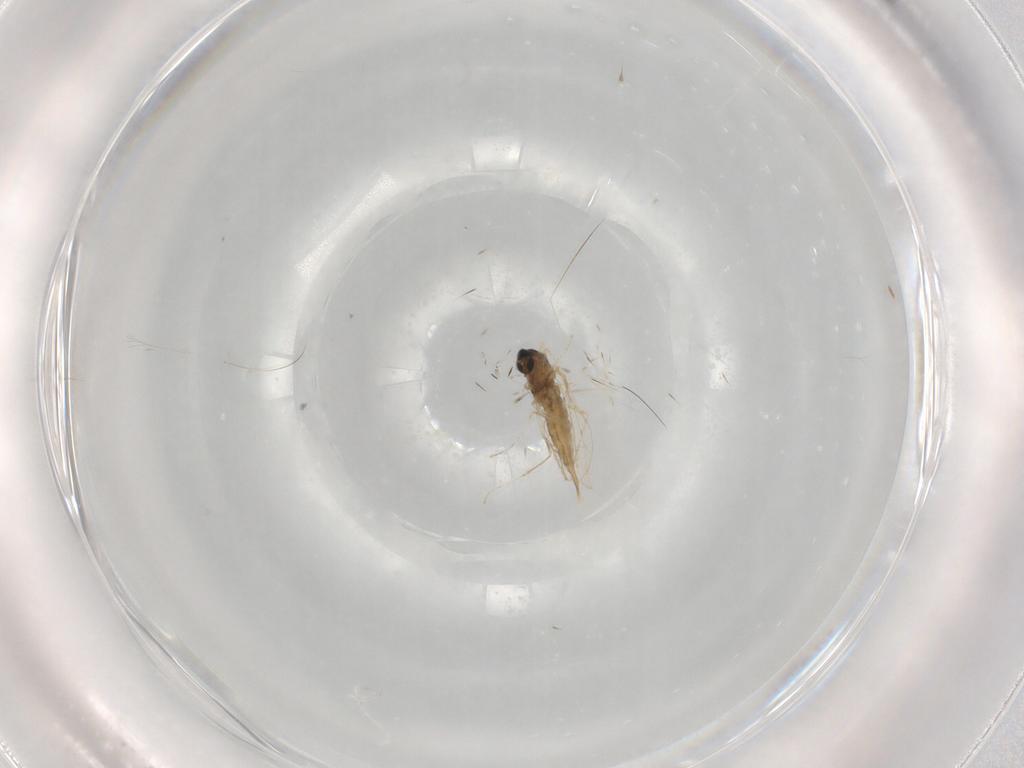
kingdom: Animalia
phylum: Arthropoda
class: Insecta
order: Diptera
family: Cecidomyiidae
